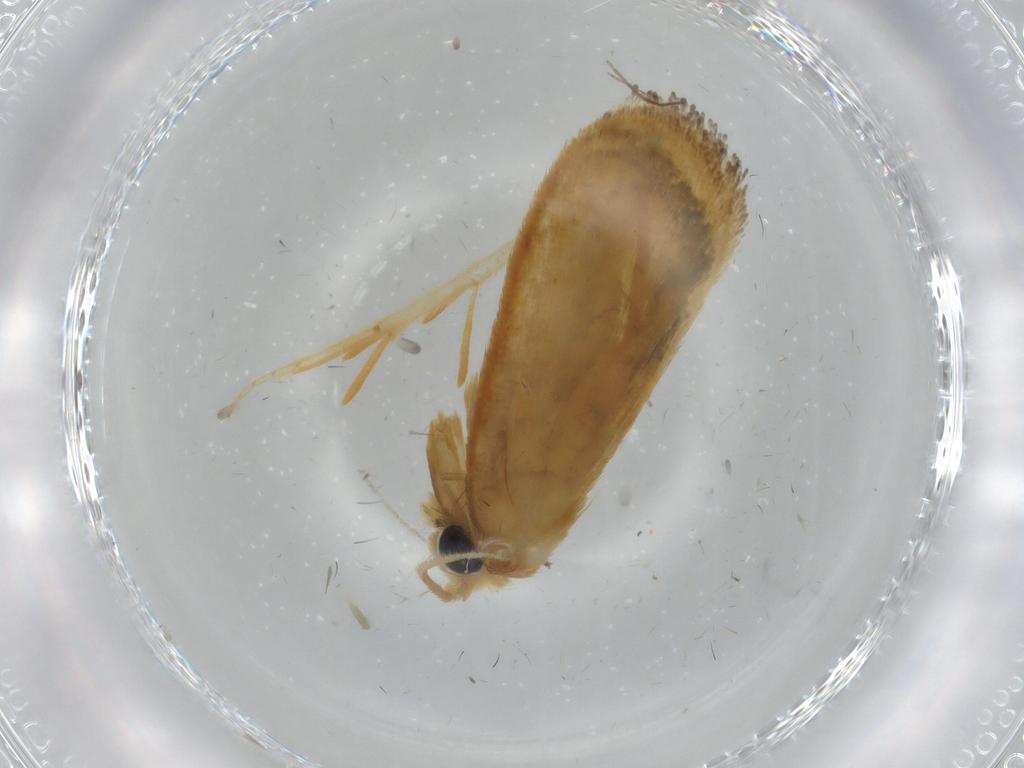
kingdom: Animalia
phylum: Arthropoda
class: Insecta
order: Lepidoptera
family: Psychidae
